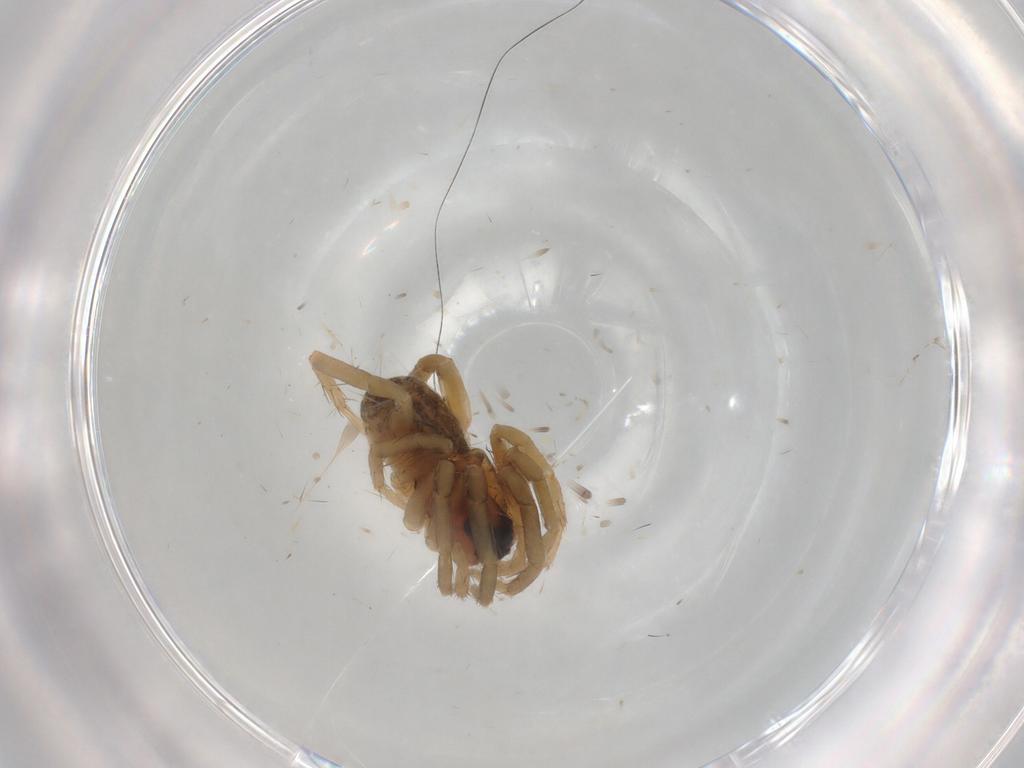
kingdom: Animalia
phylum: Arthropoda
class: Arachnida
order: Araneae
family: Lycosidae
